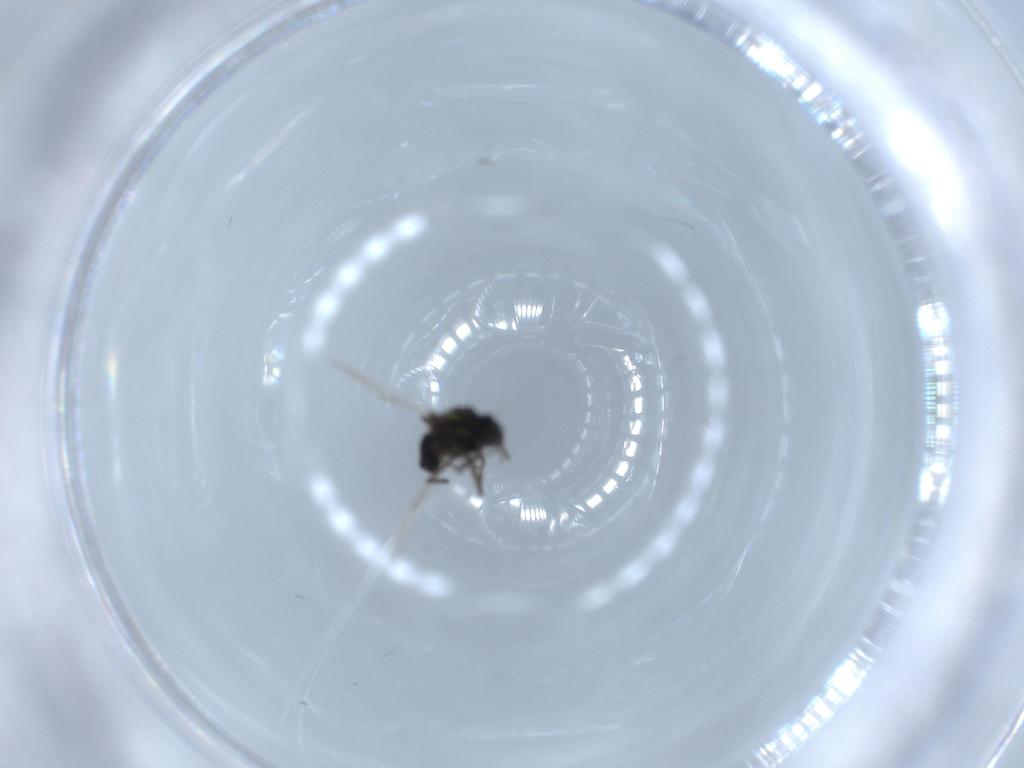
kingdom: Animalia
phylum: Arthropoda
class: Insecta
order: Diptera
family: Ceratopogonidae
